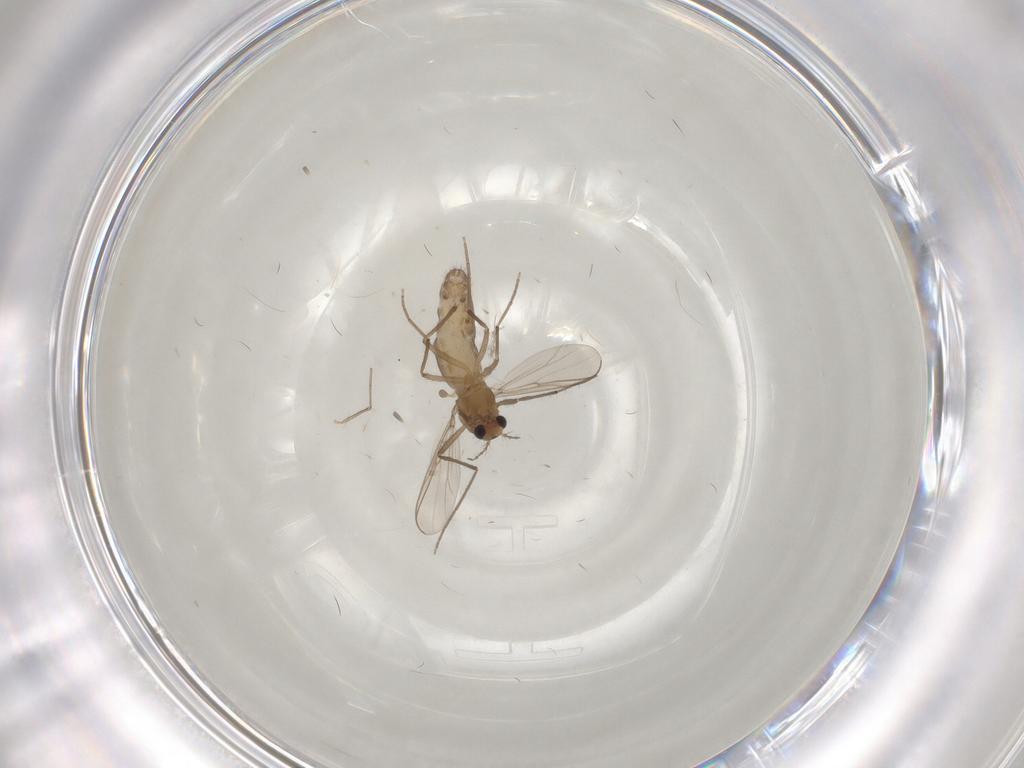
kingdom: Animalia
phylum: Arthropoda
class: Insecta
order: Diptera
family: Chironomidae
